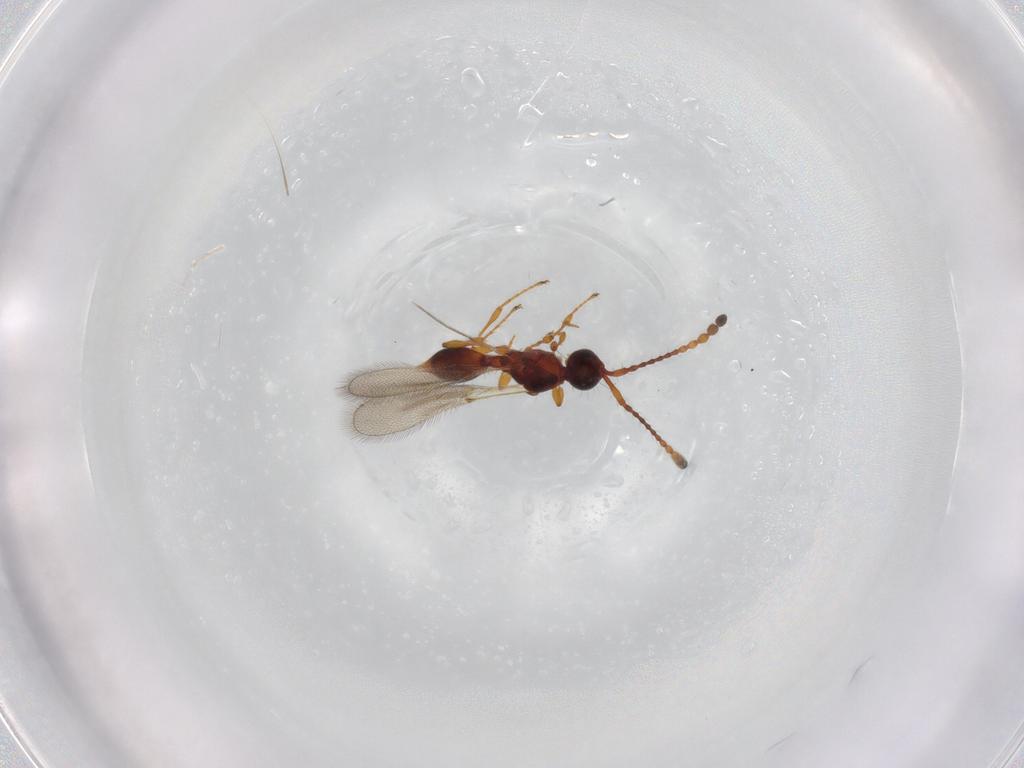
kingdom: Animalia
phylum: Arthropoda
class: Insecta
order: Hymenoptera
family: Diapriidae
